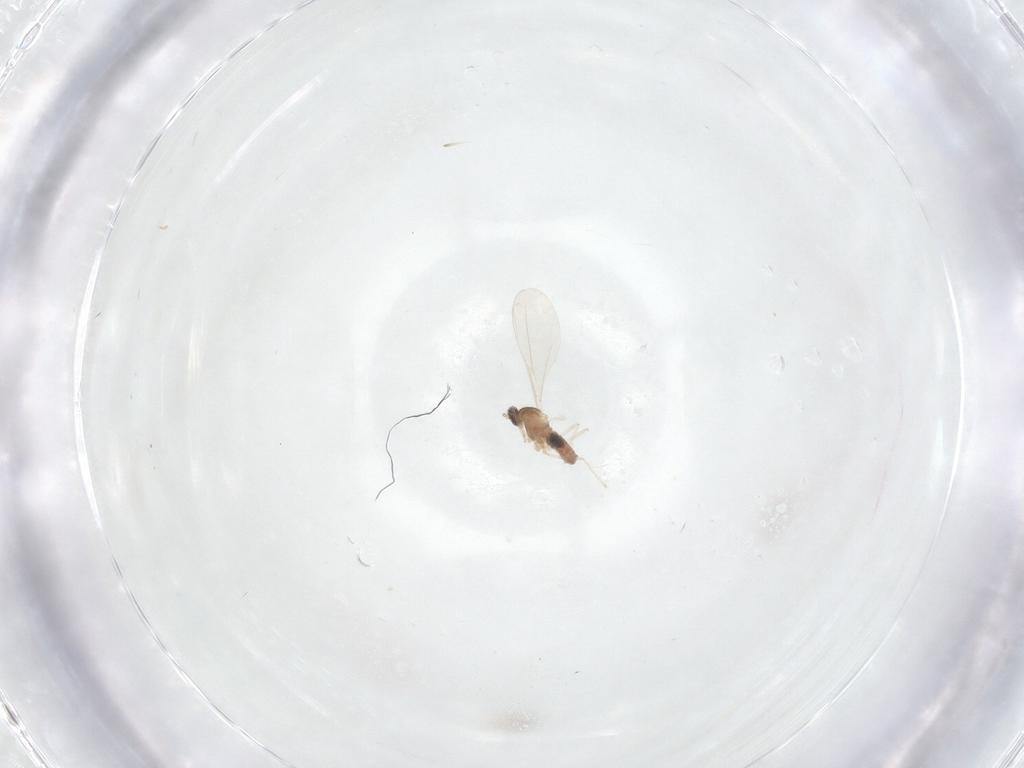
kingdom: Animalia
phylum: Arthropoda
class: Insecta
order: Diptera
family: Cecidomyiidae
